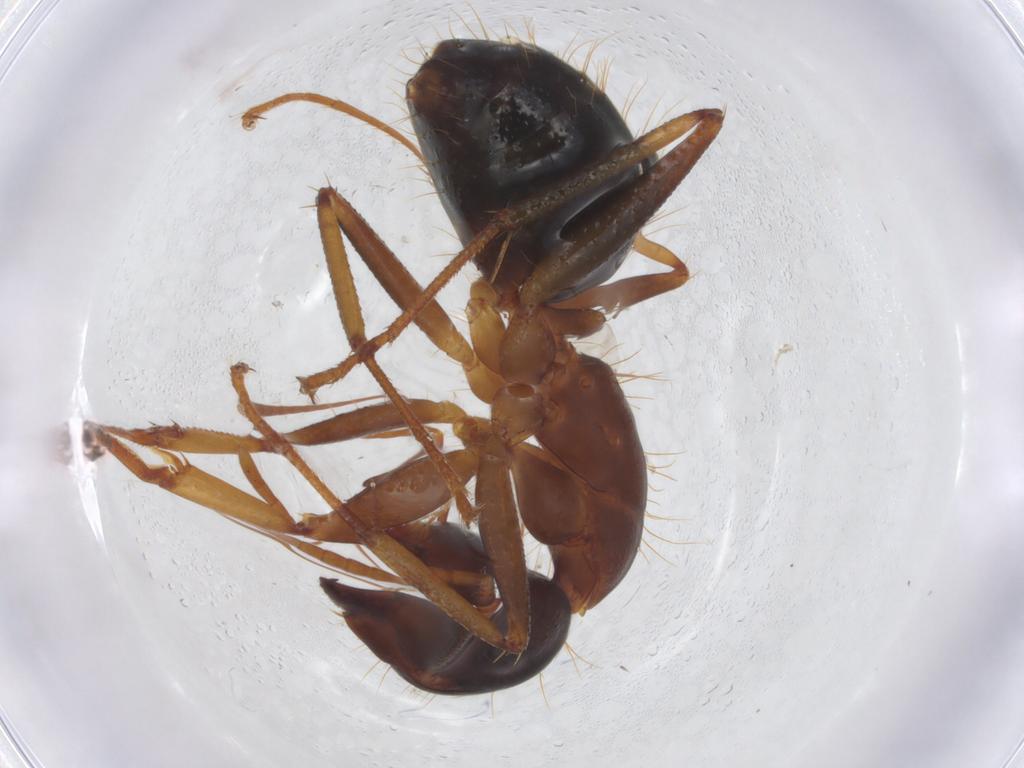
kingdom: Animalia
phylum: Arthropoda
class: Insecta
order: Hymenoptera
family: Formicidae
